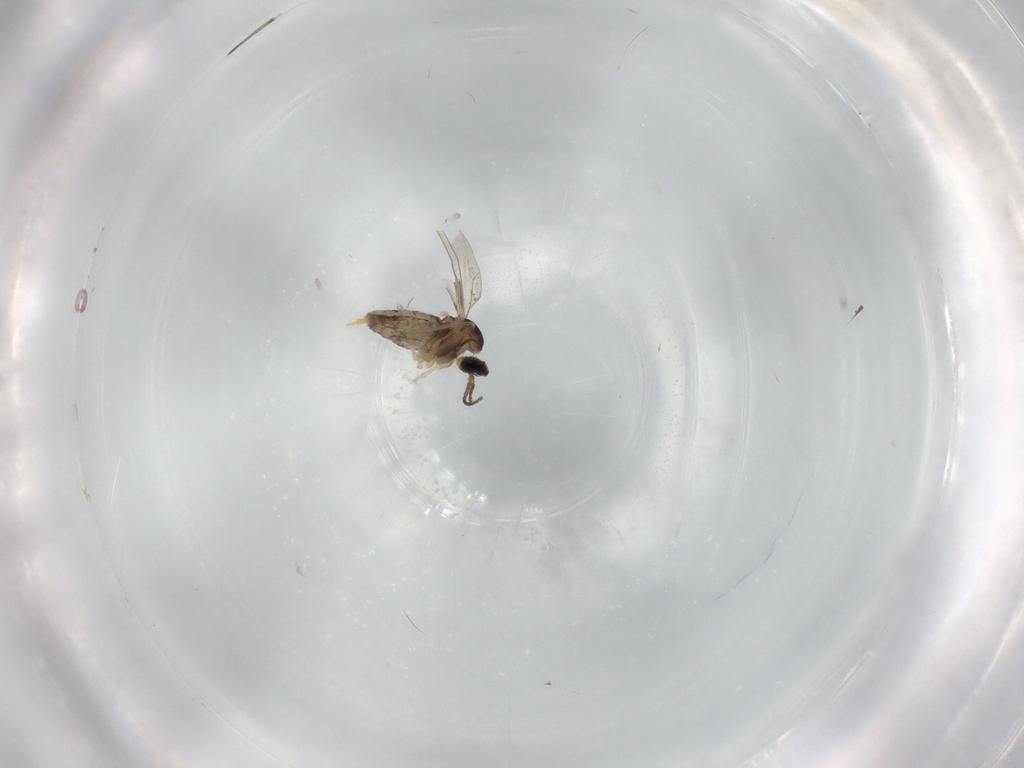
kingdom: Animalia
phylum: Arthropoda
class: Insecta
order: Diptera
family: Cecidomyiidae
